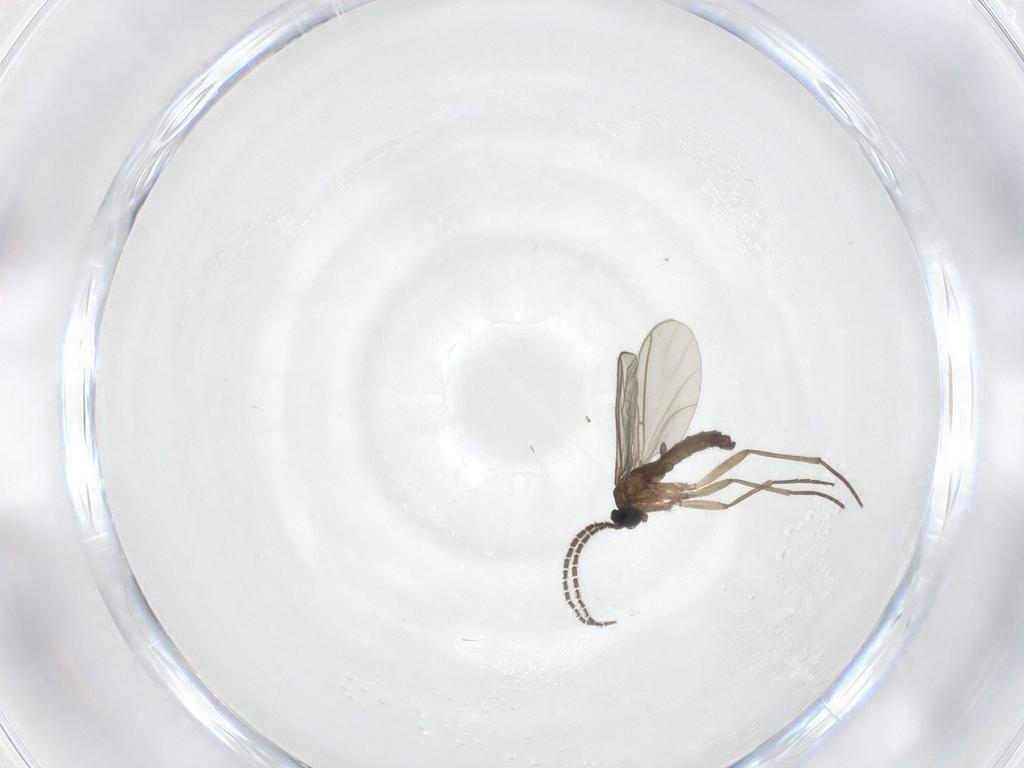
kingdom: Animalia
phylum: Arthropoda
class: Insecta
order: Diptera
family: Sciaridae
